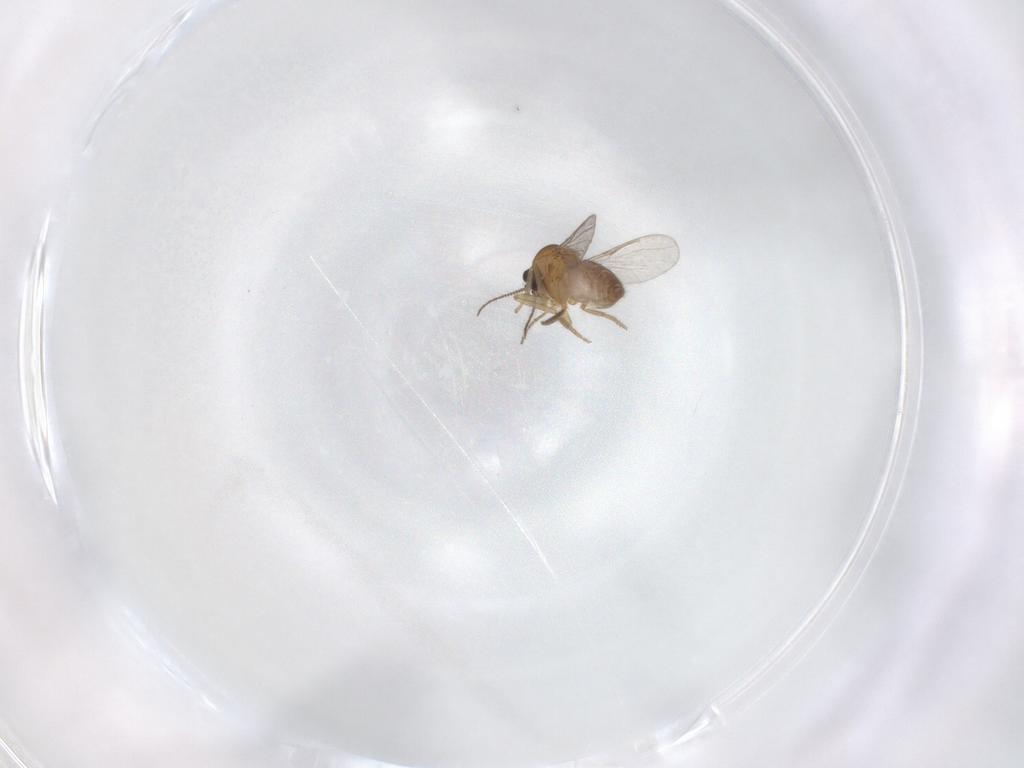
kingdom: Animalia
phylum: Arthropoda
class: Insecta
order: Diptera
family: Ceratopogonidae
